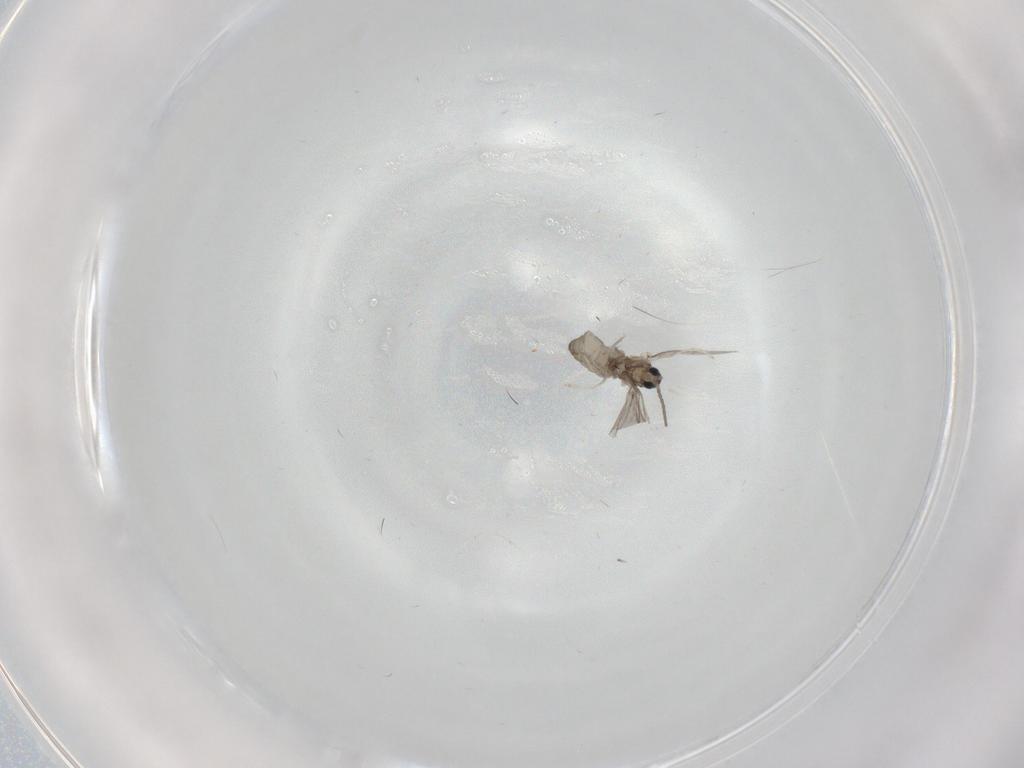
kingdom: Animalia
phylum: Arthropoda
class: Insecta
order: Diptera
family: Cecidomyiidae
